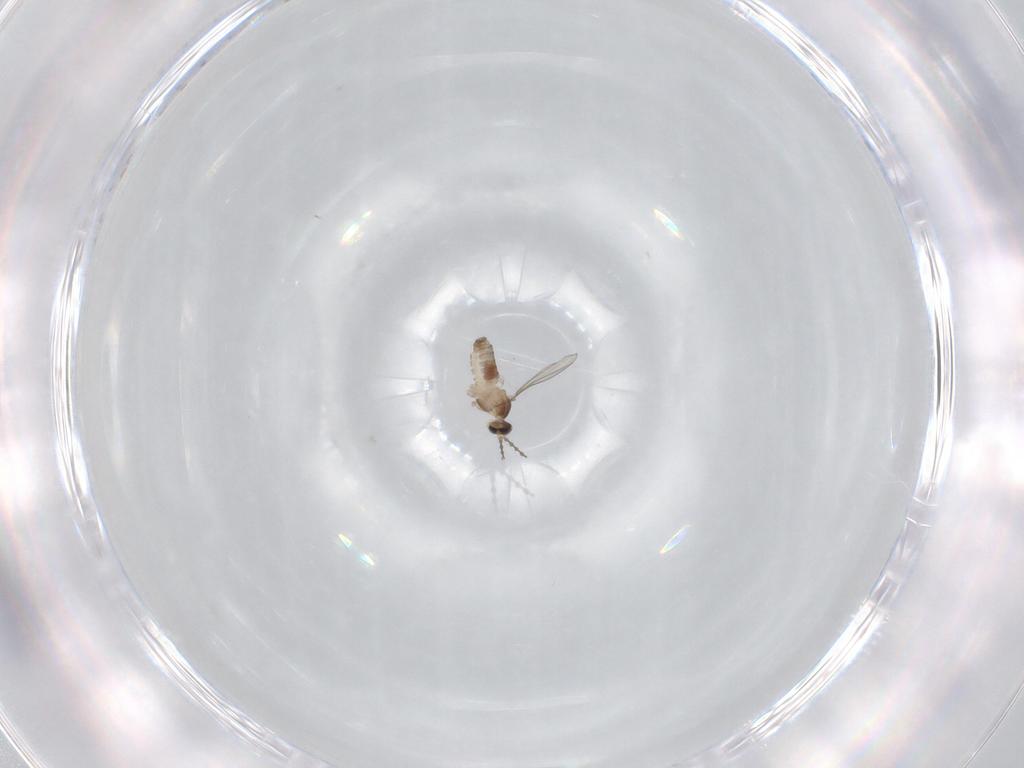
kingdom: Animalia
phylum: Arthropoda
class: Insecta
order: Diptera
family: Cecidomyiidae
